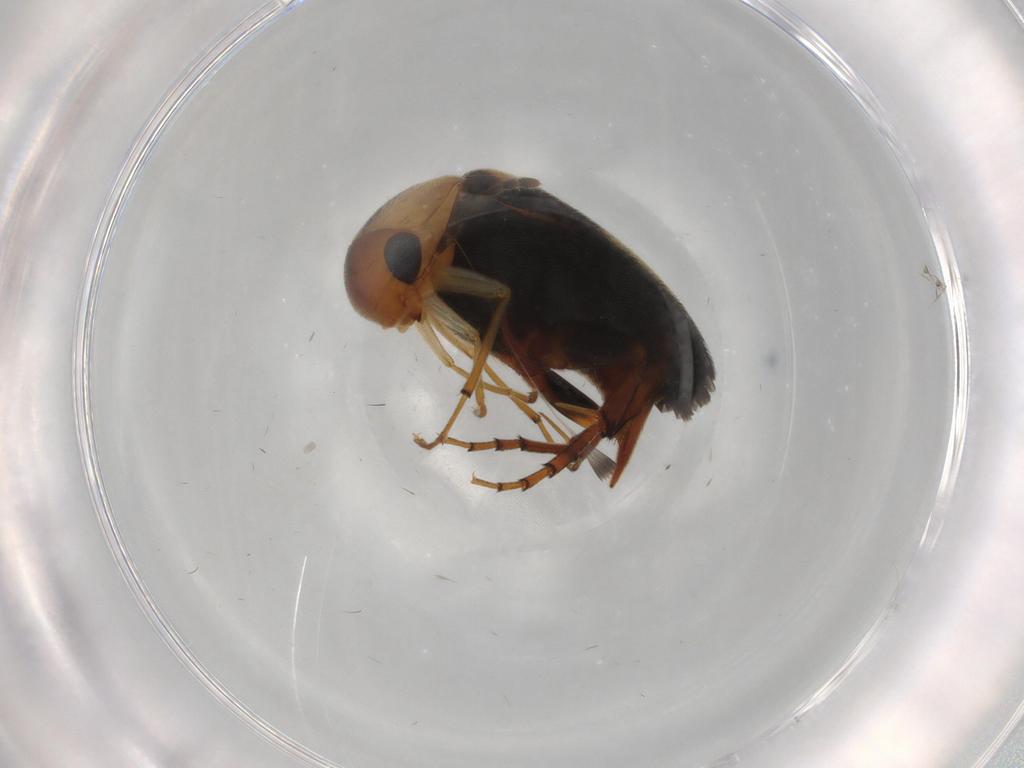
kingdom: Animalia
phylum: Arthropoda
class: Insecta
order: Coleoptera
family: Mordellidae
